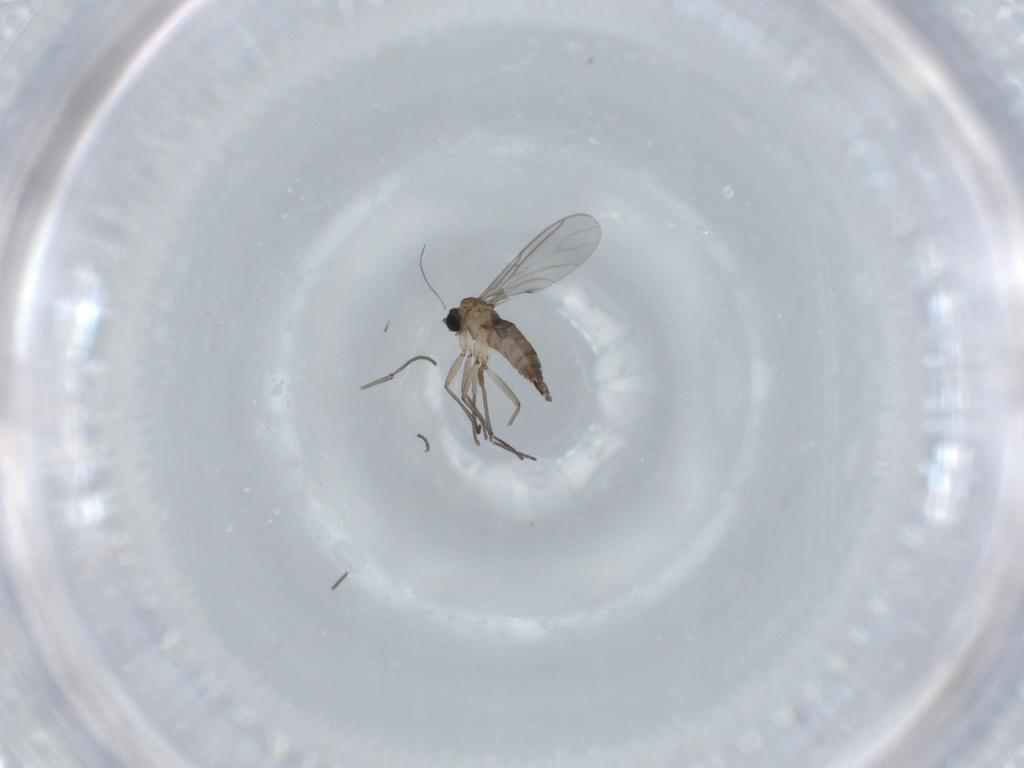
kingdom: Animalia
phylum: Arthropoda
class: Insecta
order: Diptera
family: Sciaridae
